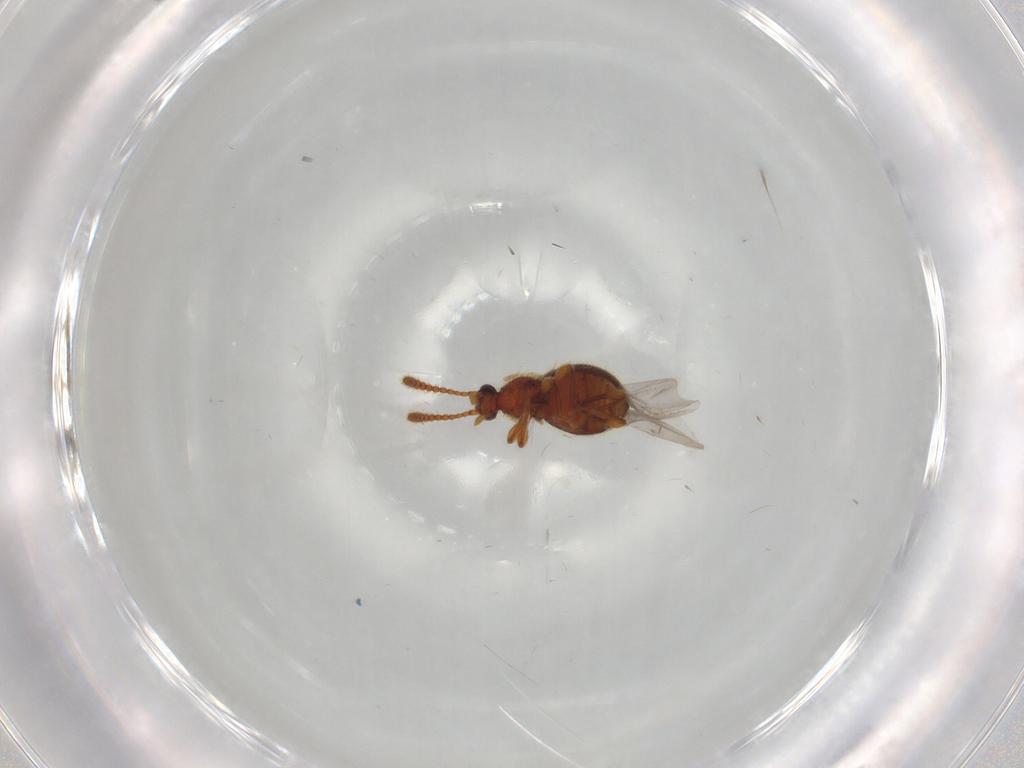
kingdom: Animalia
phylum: Arthropoda
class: Insecta
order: Coleoptera
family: Staphylinidae
